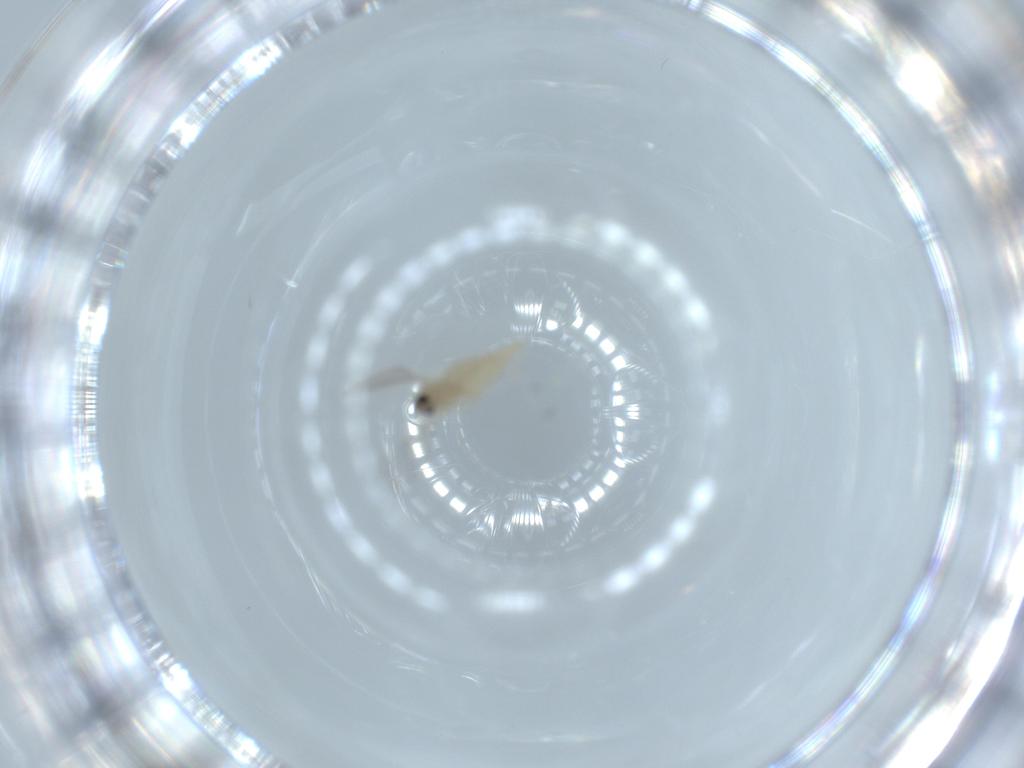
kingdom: Animalia
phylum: Arthropoda
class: Insecta
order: Diptera
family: Cecidomyiidae
